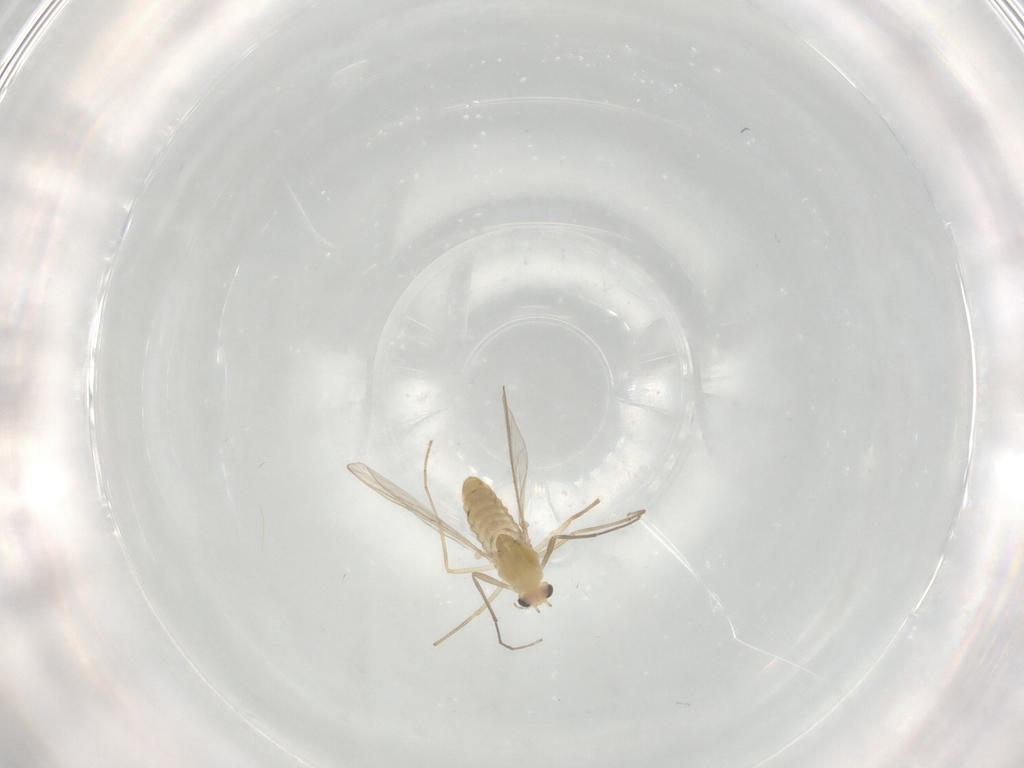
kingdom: Animalia
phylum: Arthropoda
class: Insecta
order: Diptera
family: Chironomidae
